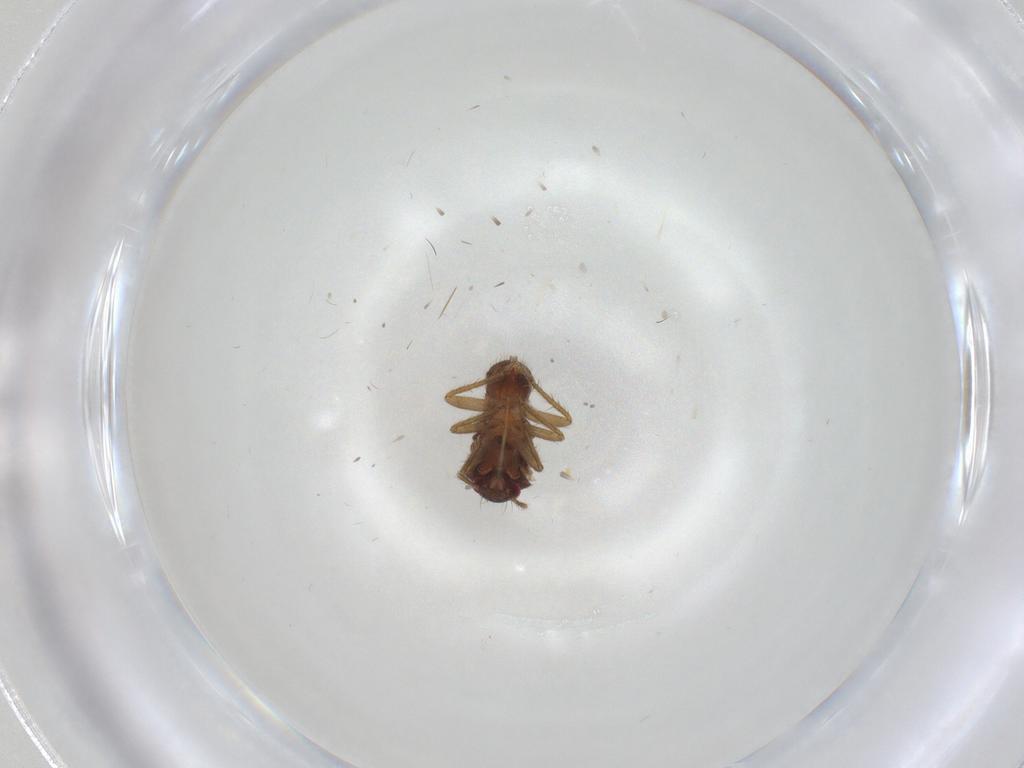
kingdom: Animalia
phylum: Arthropoda
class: Insecta
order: Hemiptera
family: Ceratocombidae
